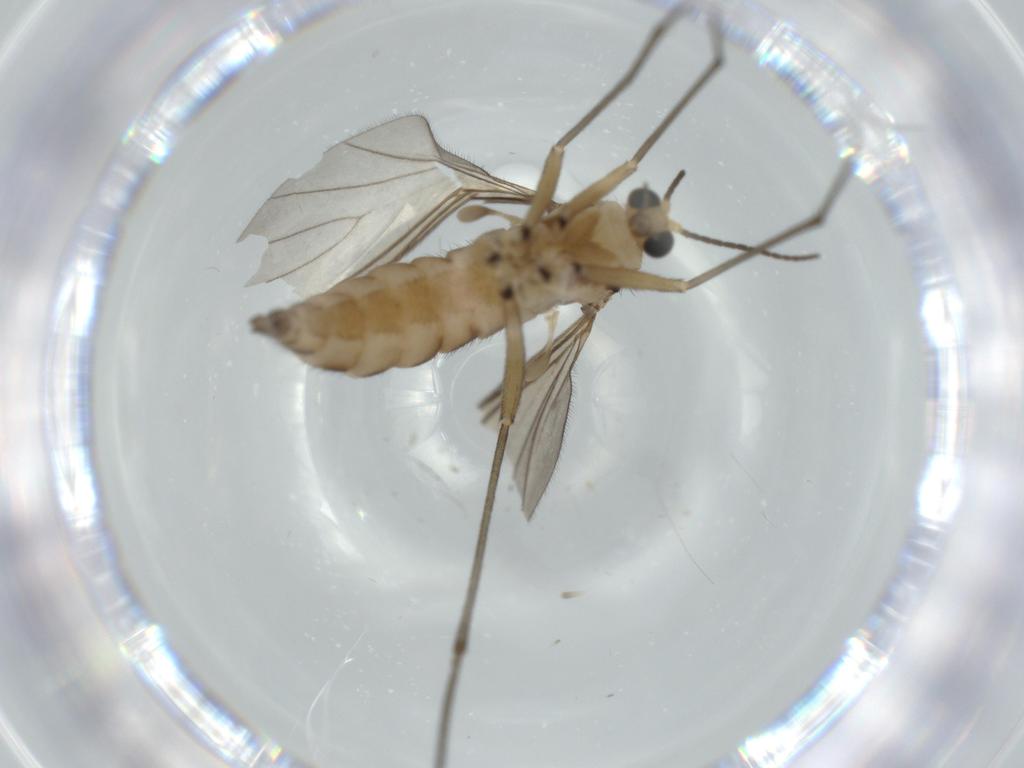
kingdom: Animalia
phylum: Arthropoda
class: Insecta
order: Diptera
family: Sciaridae
